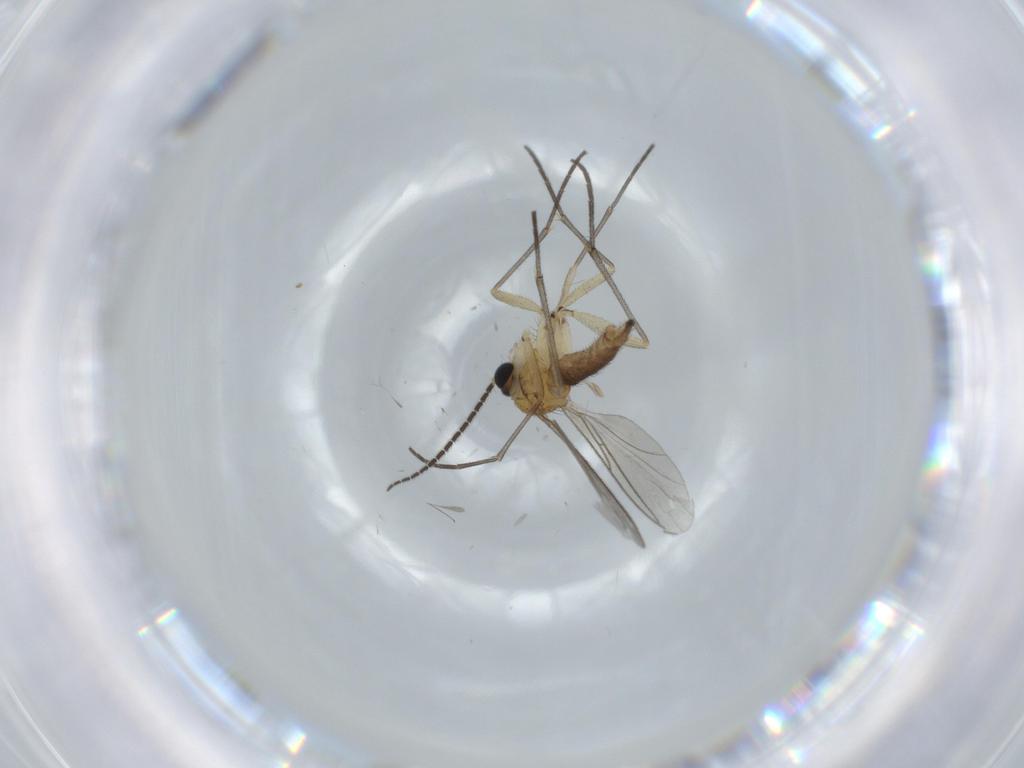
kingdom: Animalia
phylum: Arthropoda
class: Insecta
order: Diptera
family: Sciaridae
